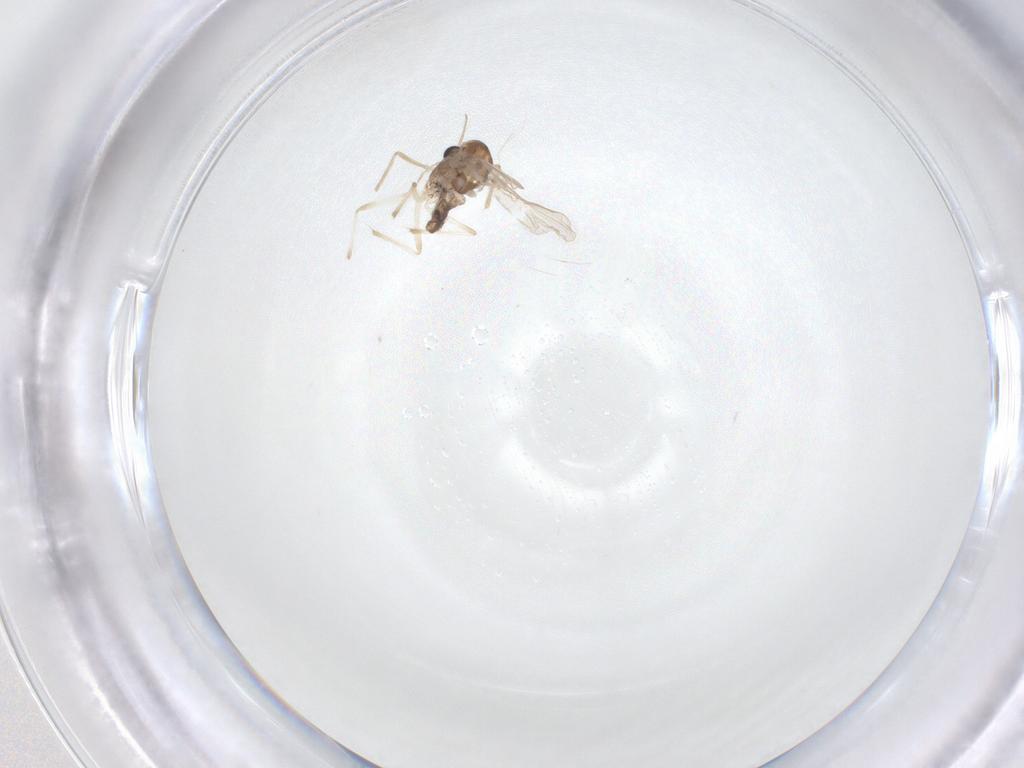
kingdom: Animalia
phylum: Arthropoda
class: Insecta
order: Diptera
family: Chironomidae
